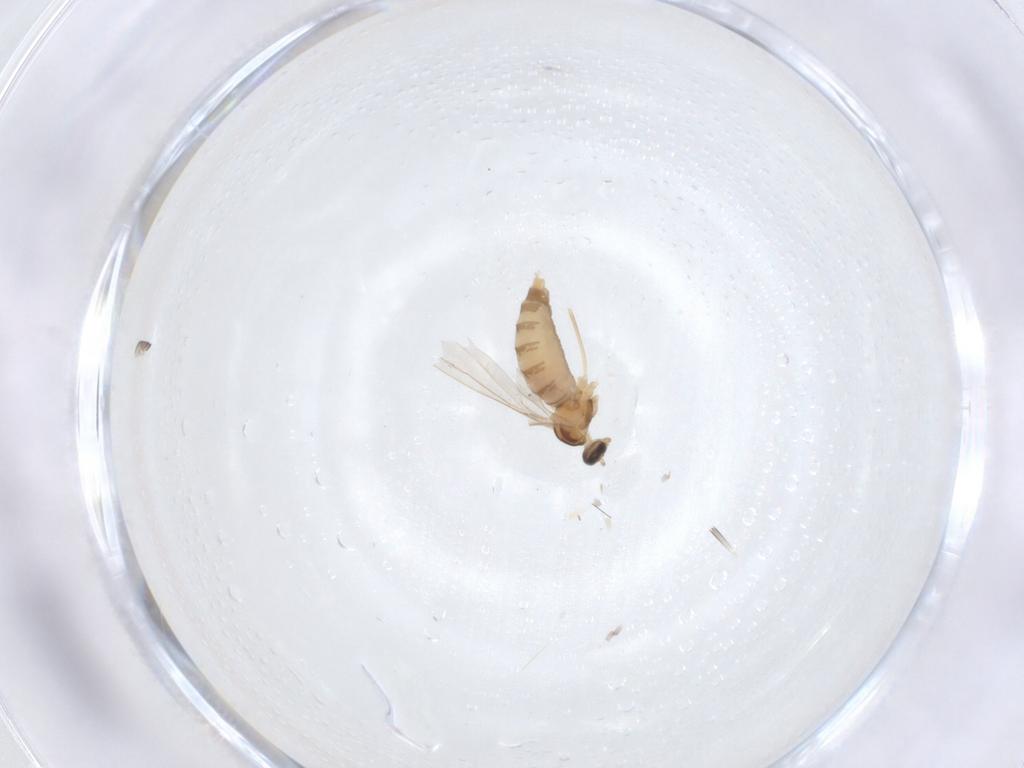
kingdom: Animalia
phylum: Arthropoda
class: Insecta
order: Diptera
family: Cecidomyiidae
